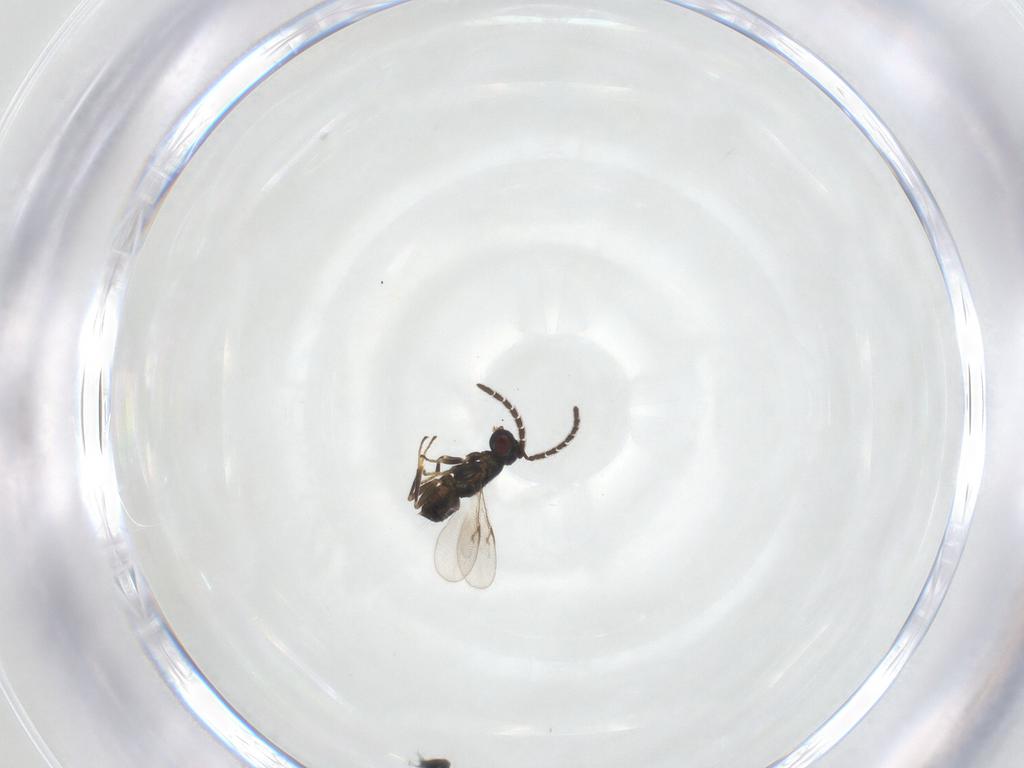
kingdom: Animalia
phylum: Arthropoda
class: Insecta
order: Hymenoptera
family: Encyrtidae
